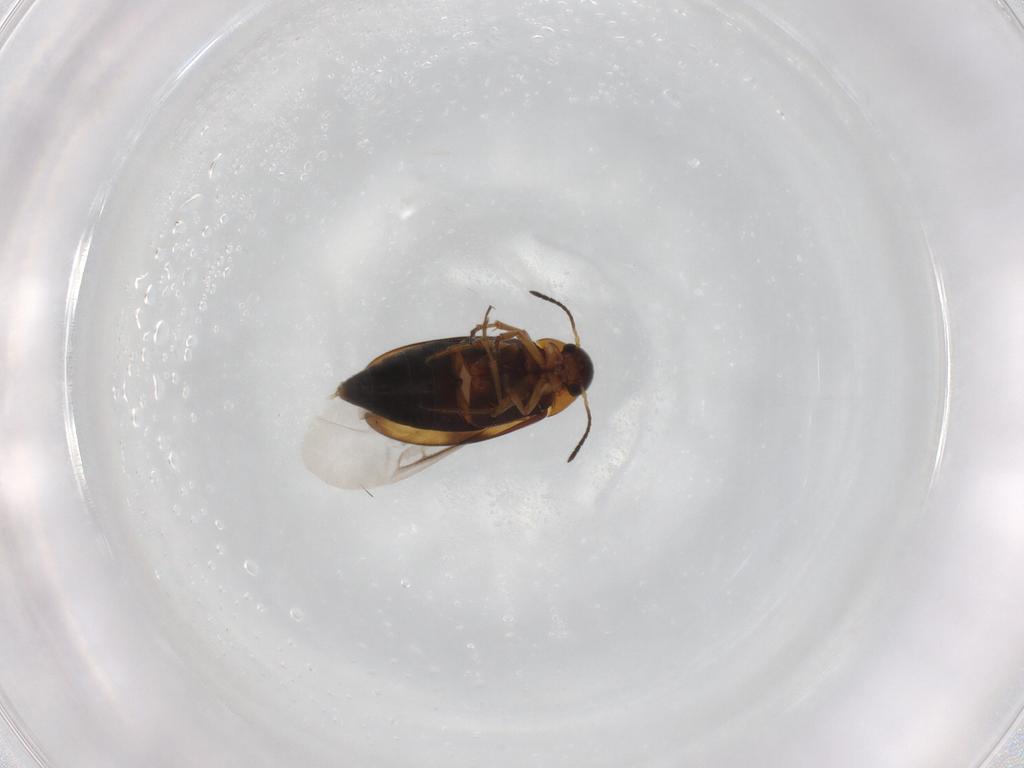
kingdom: Animalia
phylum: Arthropoda
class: Insecta
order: Coleoptera
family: Scraptiidae
